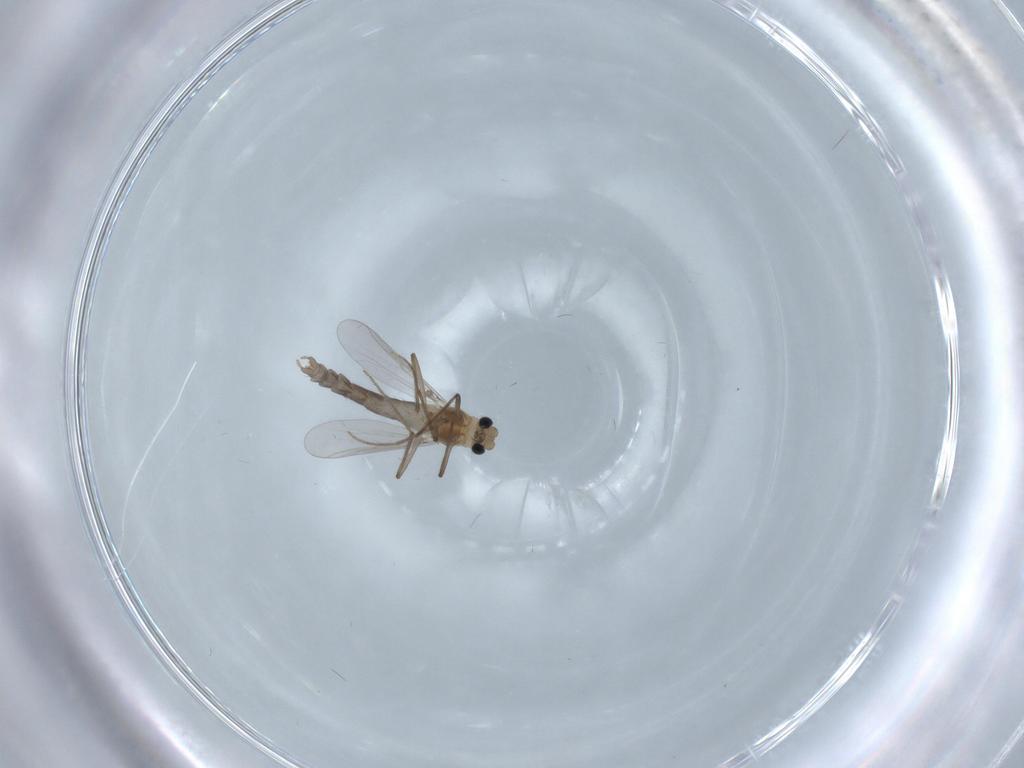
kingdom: Animalia
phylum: Arthropoda
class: Insecta
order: Diptera
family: Chironomidae
